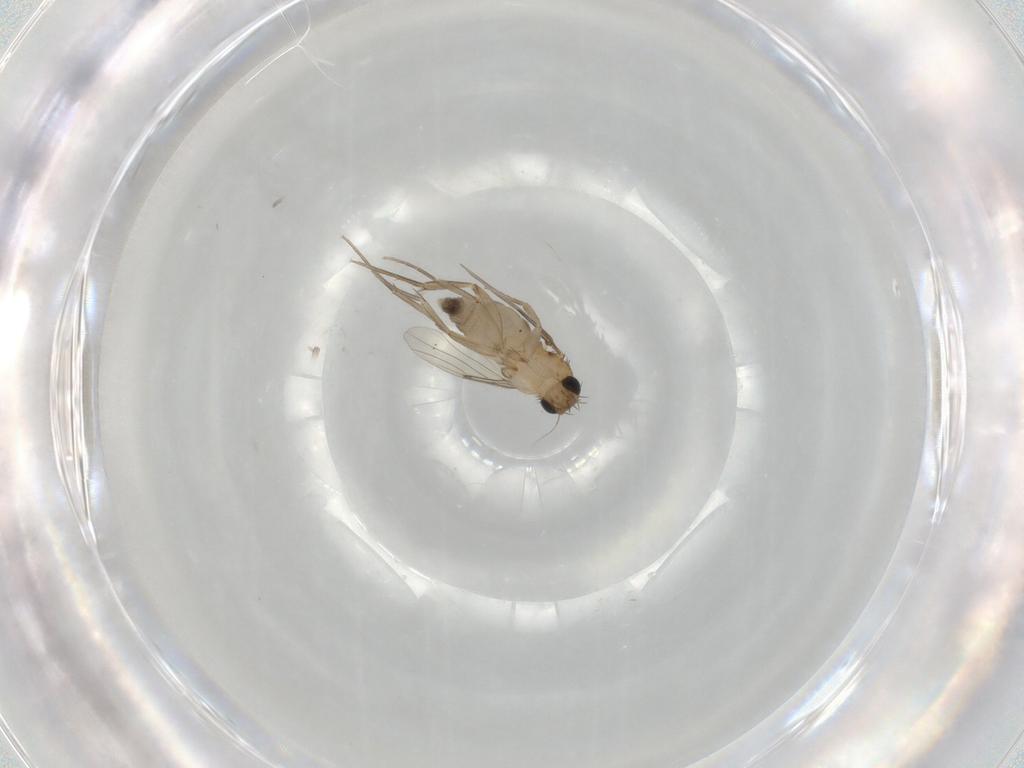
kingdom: Animalia
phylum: Arthropoda
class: Insecta
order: Diptera
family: Phoridae
